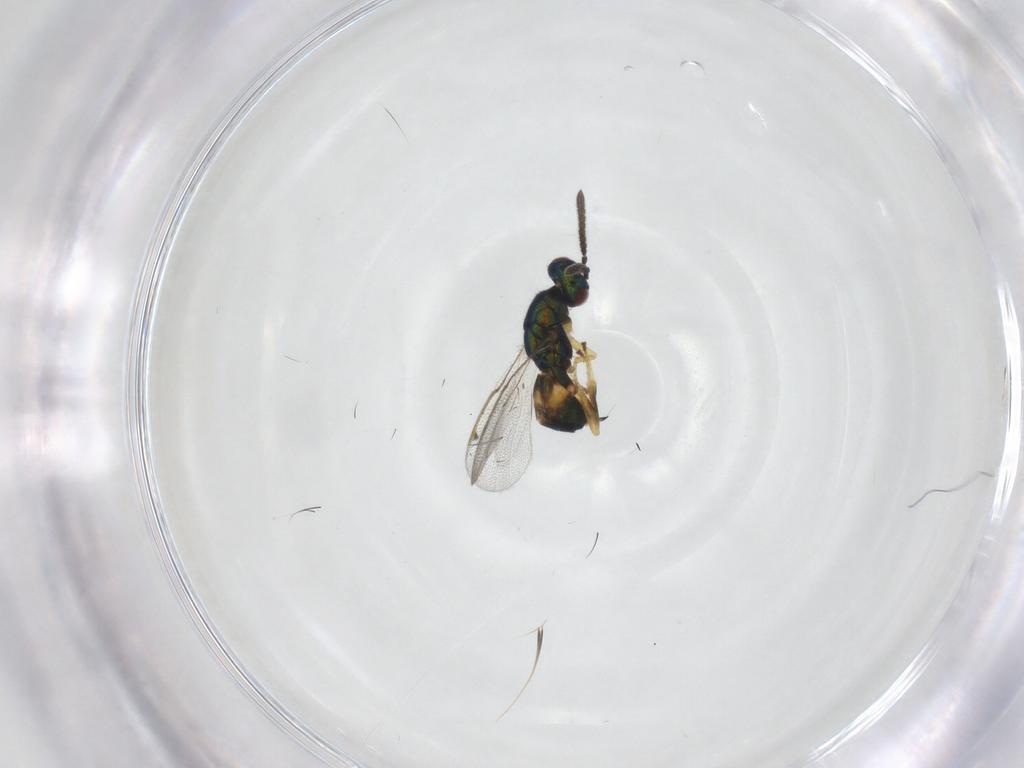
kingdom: Animalia
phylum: Arthropoda
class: Insecta
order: Hymenoptera
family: Torymidae
